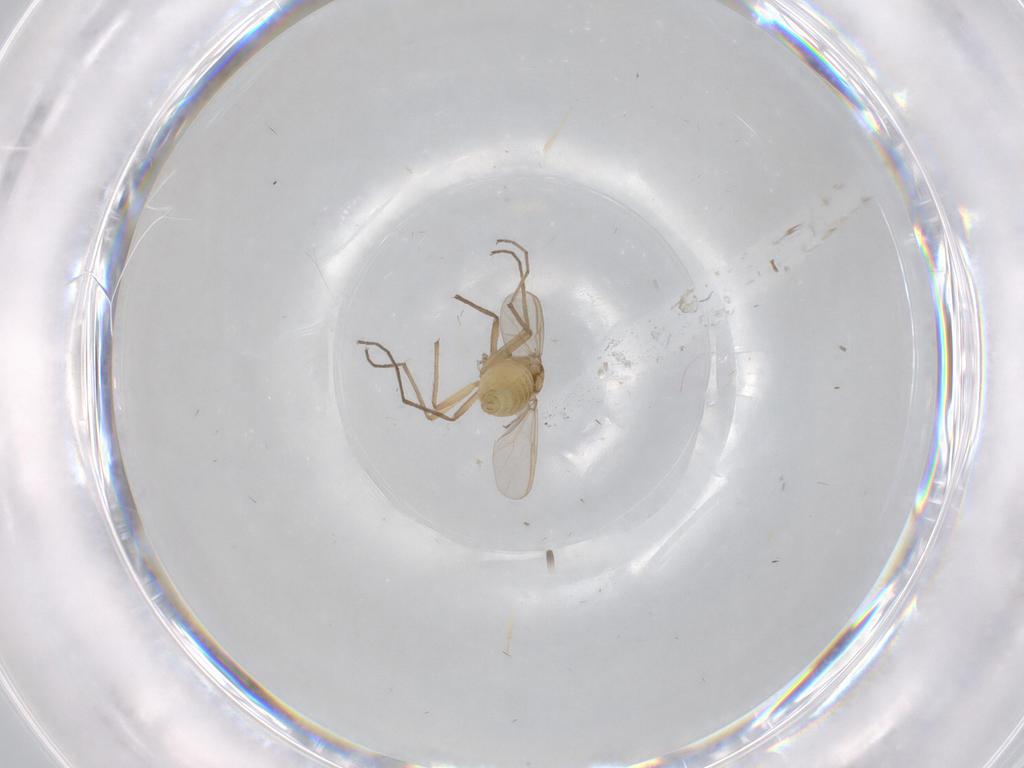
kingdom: Animalia
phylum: Arthropoda
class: Insecta
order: Diptera
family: Chironomidae
